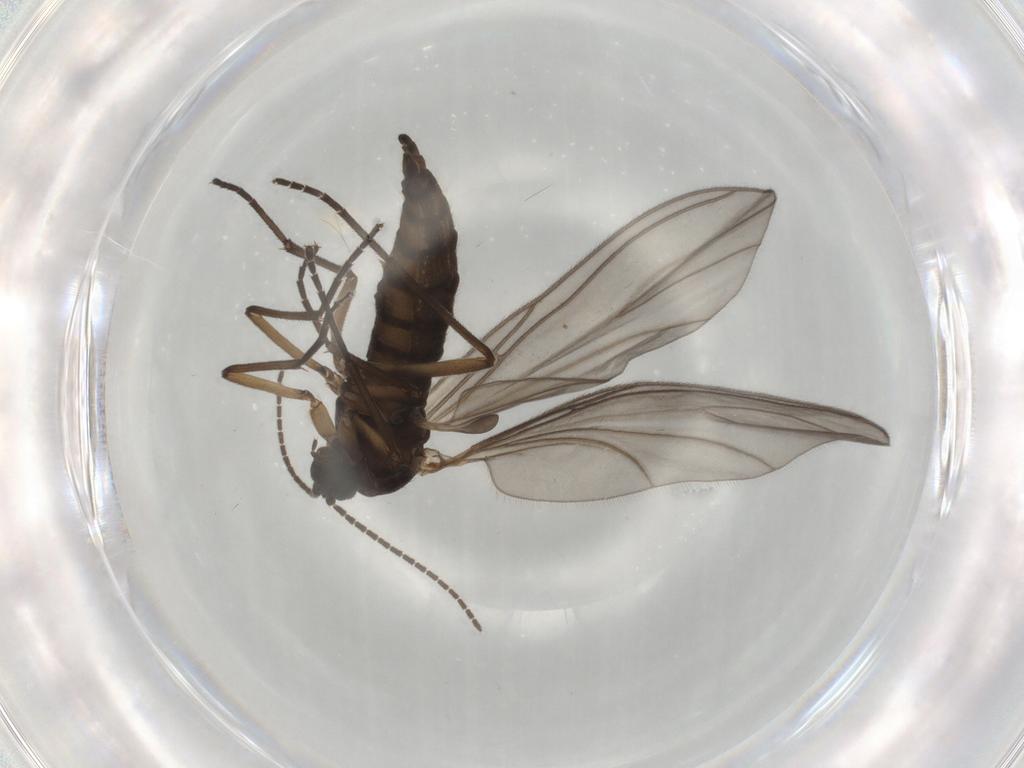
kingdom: Animalia
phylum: Arthropoda
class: Insecta
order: Diptera
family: Sciaridae
